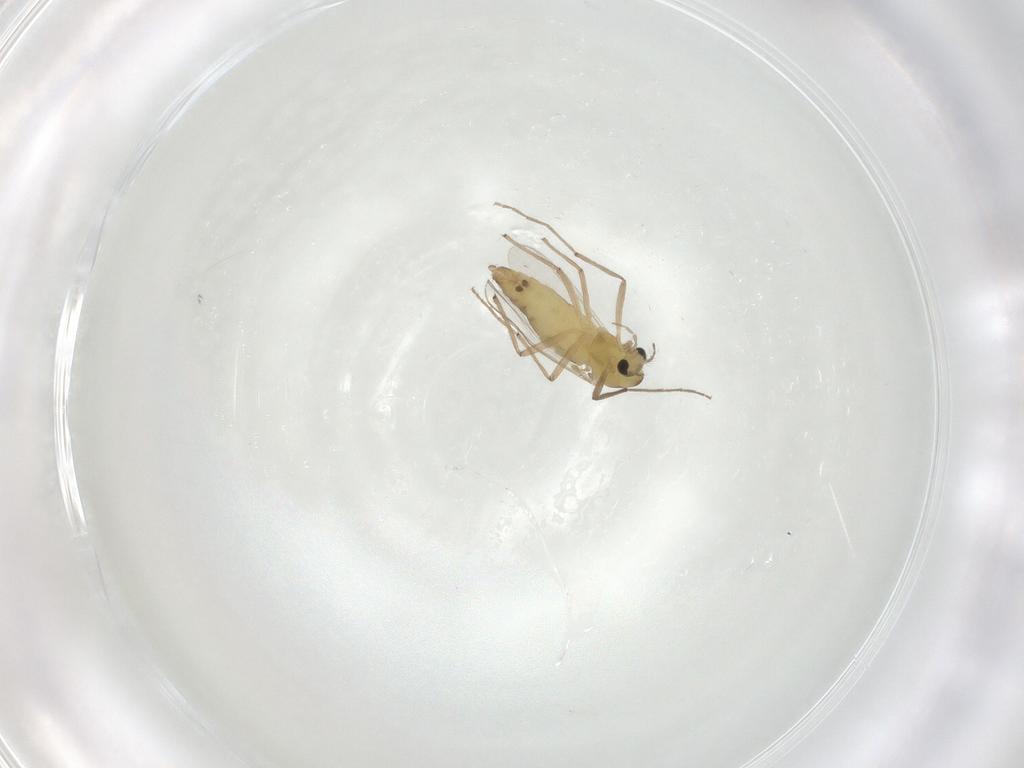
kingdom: Animalia
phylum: Arthropoda
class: Insecta
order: Diptera
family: Chironomidae
